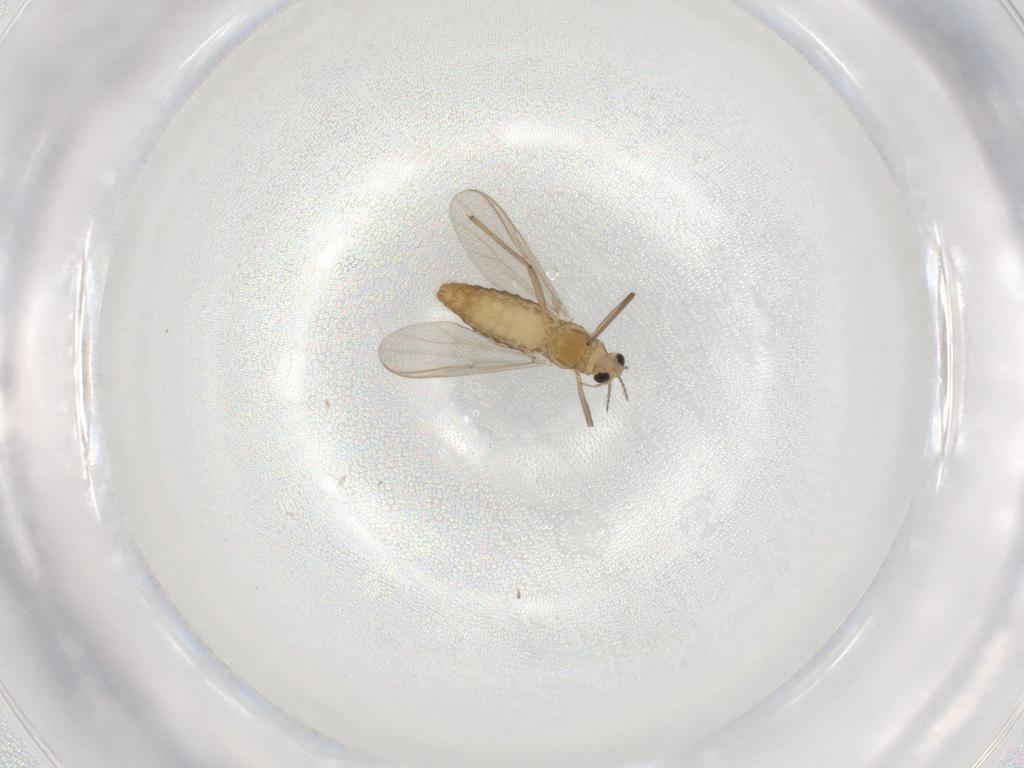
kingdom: Animalia
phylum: Arthropoda
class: Insecta
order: Diptera
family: Chironomidae
